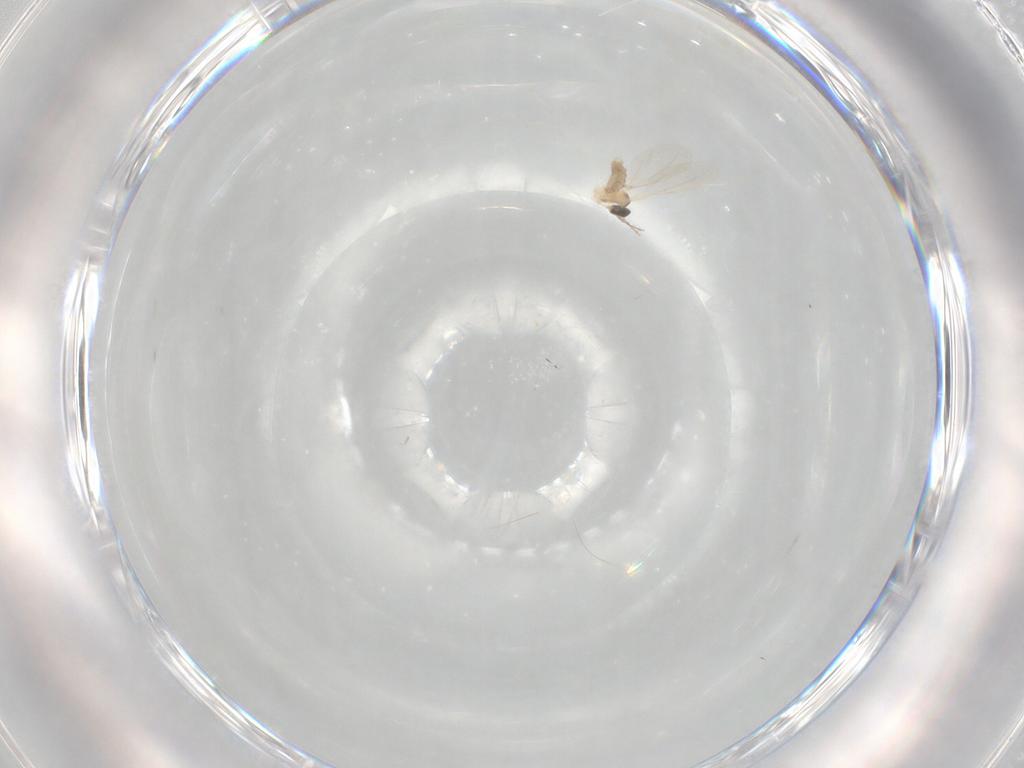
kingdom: Animalia
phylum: Arthropoda
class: Insecta
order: Diptera
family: Cecidomyiidae
